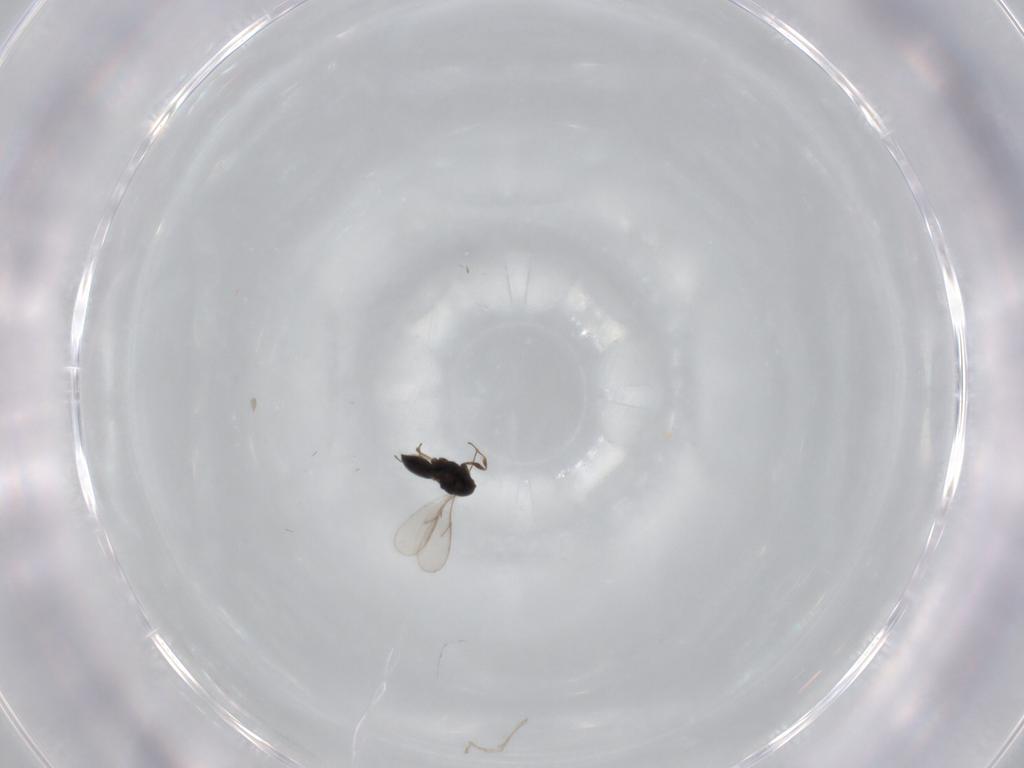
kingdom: Animalia
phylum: Arthropoda
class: Insecta
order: Hymenoptera
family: Scelionidae
